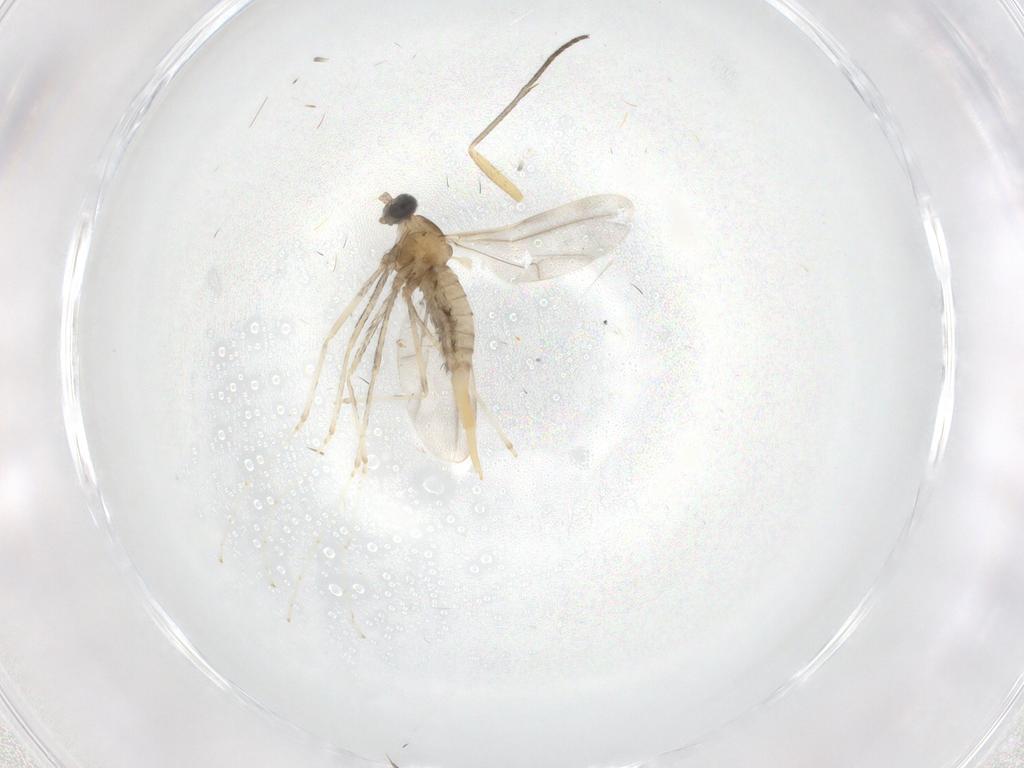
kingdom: Animalia
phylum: Arthropoda
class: Insecta
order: Diptera
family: Sciaridae
